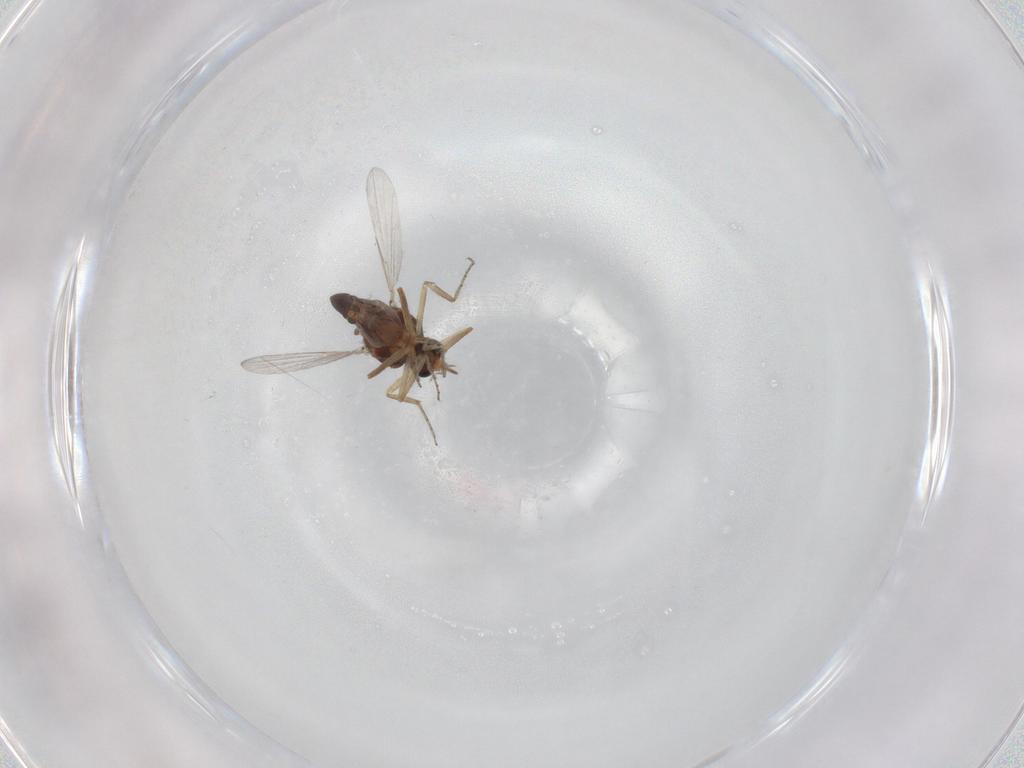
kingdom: Animalia
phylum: Arthropoda
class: Insecta
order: Diptera
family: Ceratopogonidae
